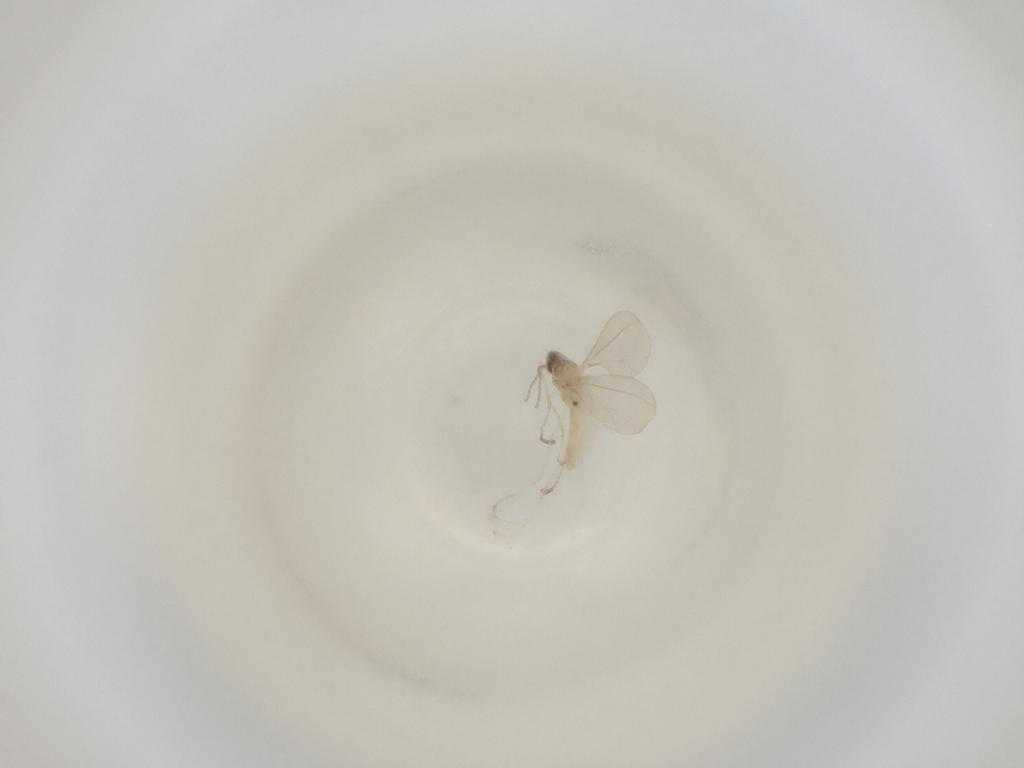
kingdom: Animalia
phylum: Arthropoda
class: Insecta
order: Diptera
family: Cecidomyiidae
